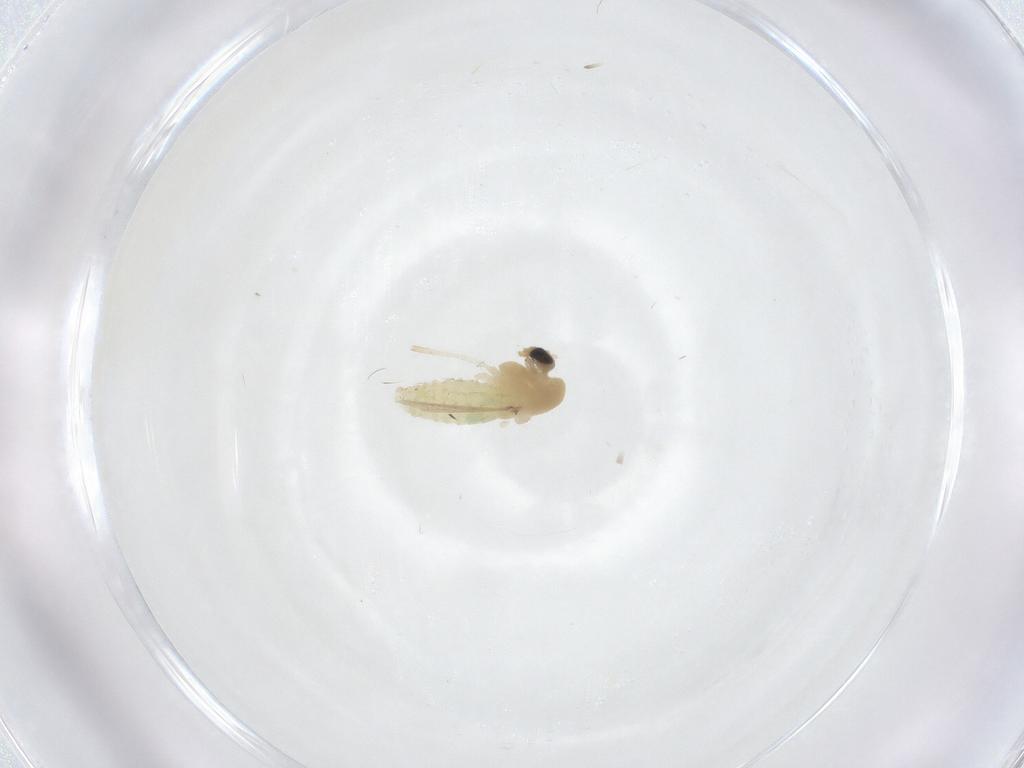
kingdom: Animalia
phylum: Arthropoda
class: Insecta
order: Diptera
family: Chironomidae
